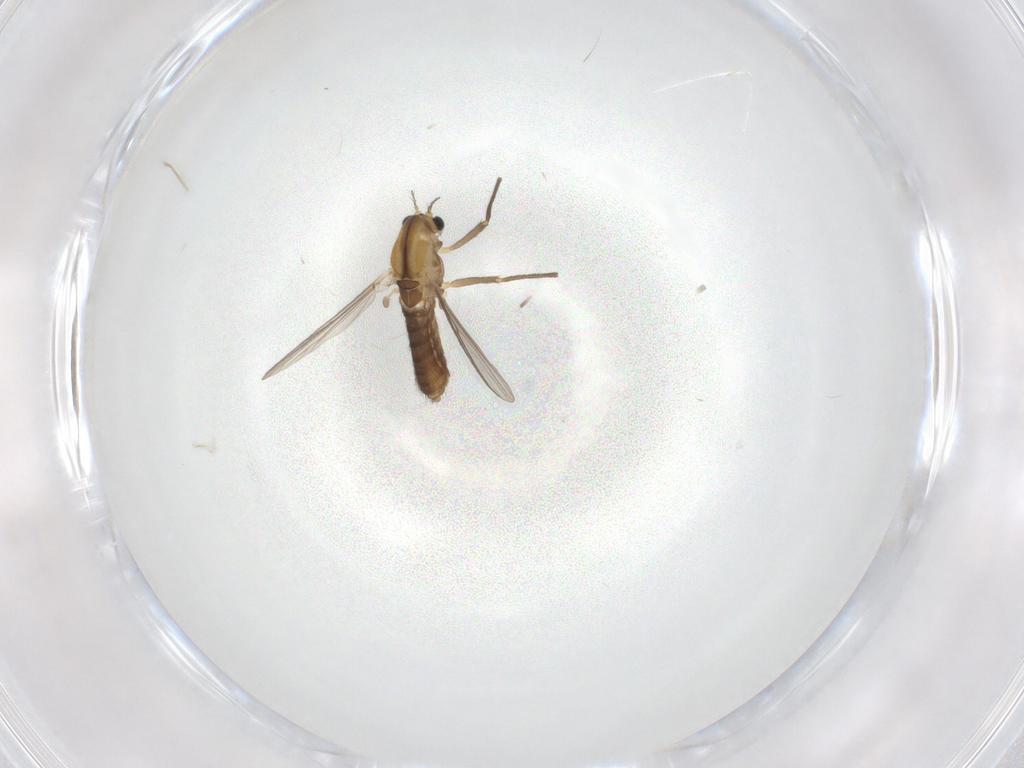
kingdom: Animalia
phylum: Arthropoda
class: Insecta
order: Diptera
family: Chironomidae
